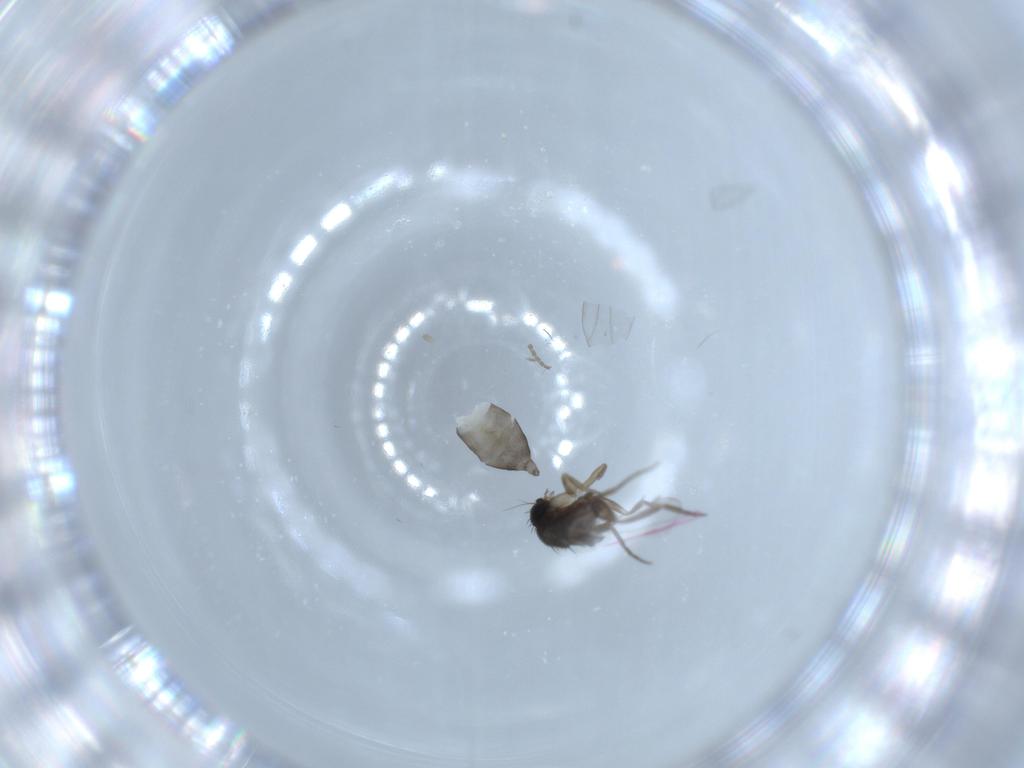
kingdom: Animalia
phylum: Arthropoda
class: Insecta
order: Diptera
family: Phoridae
